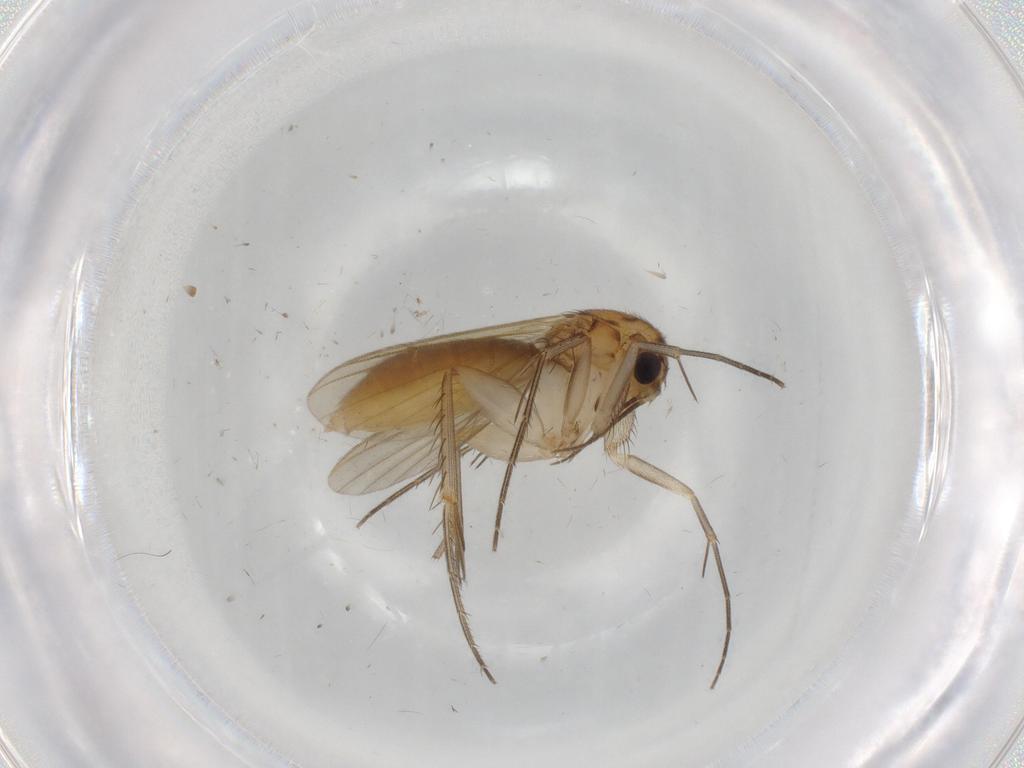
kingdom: Animalia
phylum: Arthropoda
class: Insecta
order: Diptera
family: Mycetophilidae
